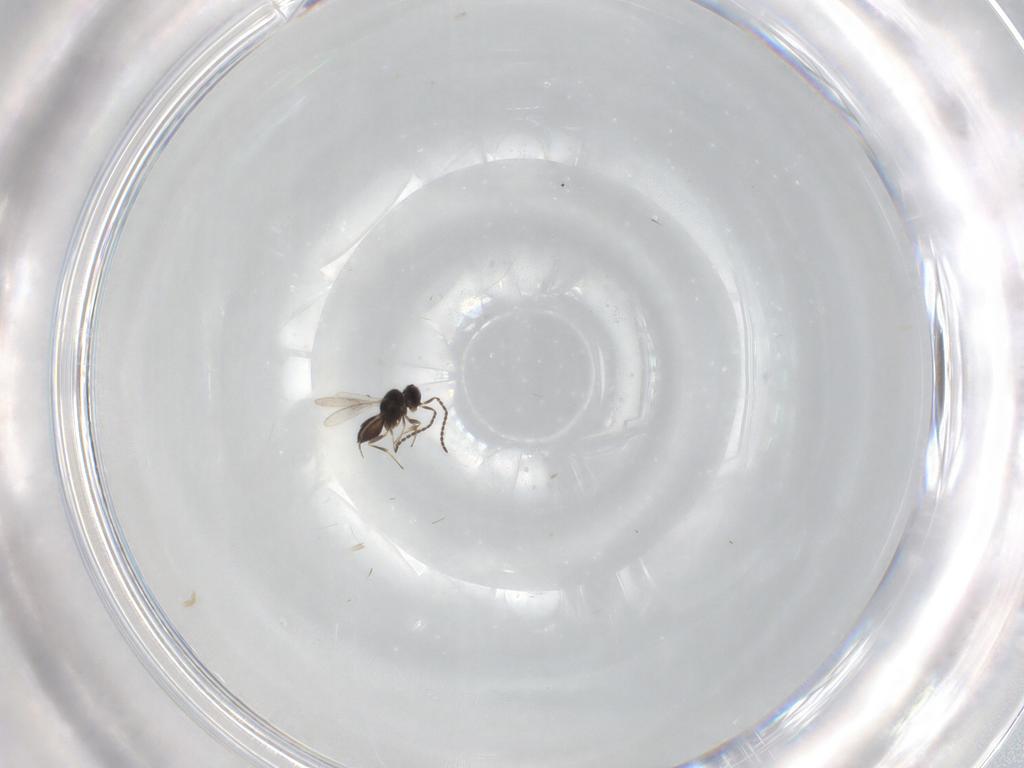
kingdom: Animalia
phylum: Arthropoda
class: Insecta
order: Hymenoptera
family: Scelionidae
